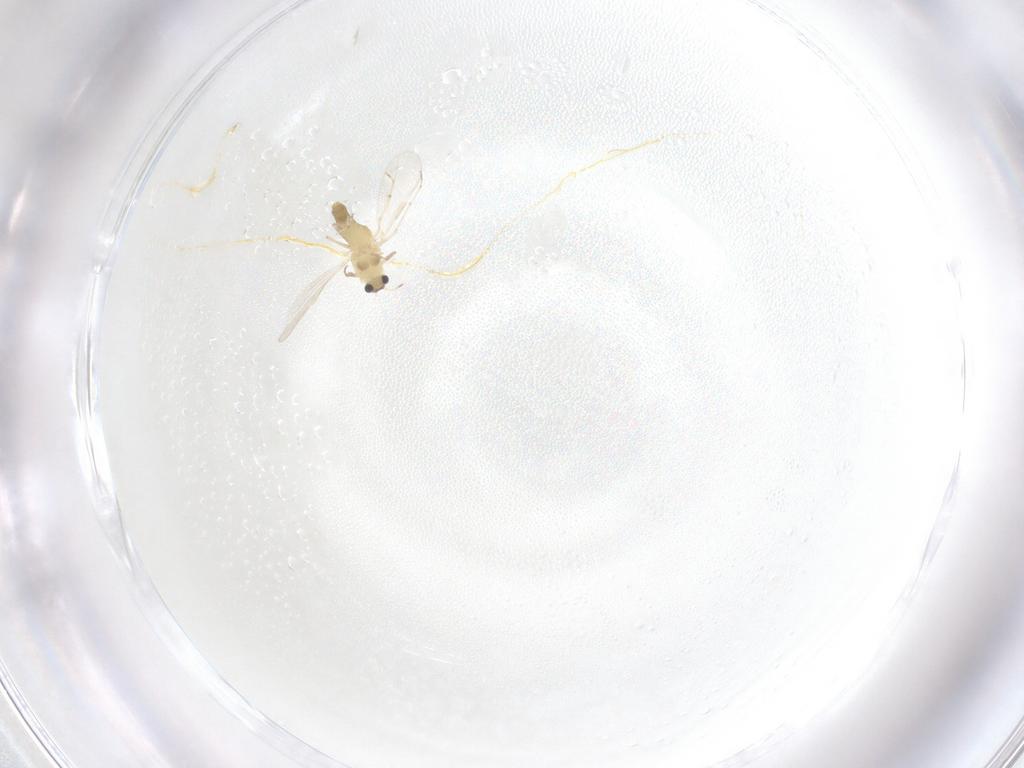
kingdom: Animalia
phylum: Arthropoda
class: Insecta
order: Diptera
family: Chironomidae
